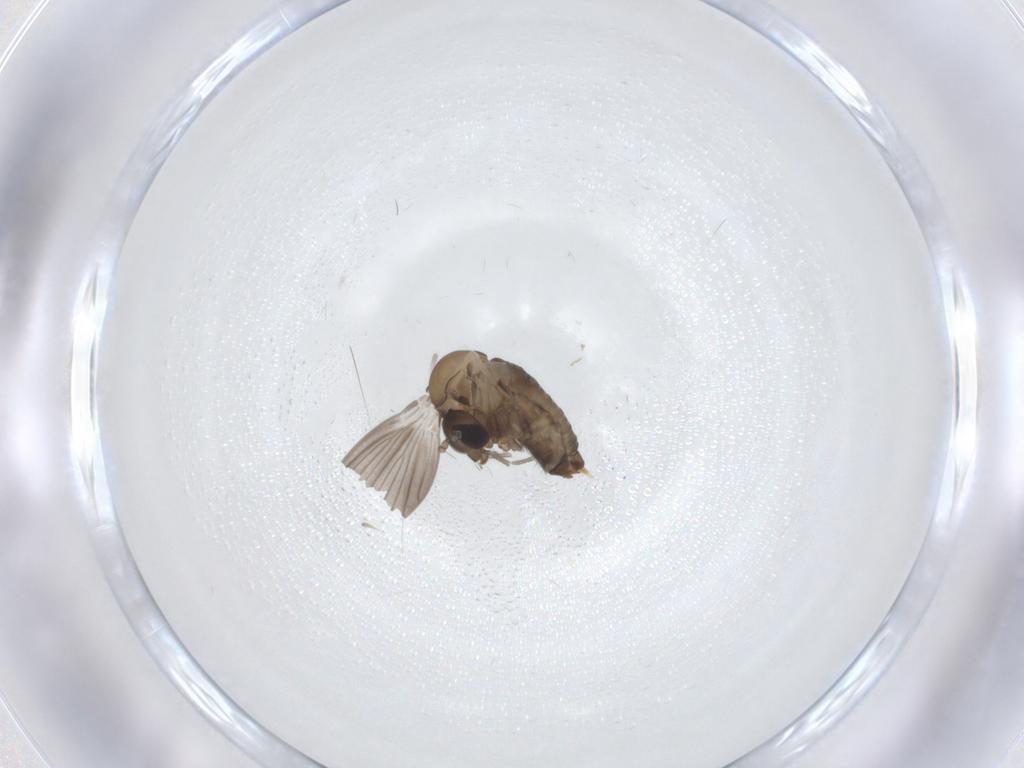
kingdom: Animalia
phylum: Arthropoda
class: Insecta
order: Diptera
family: Psychodidae
